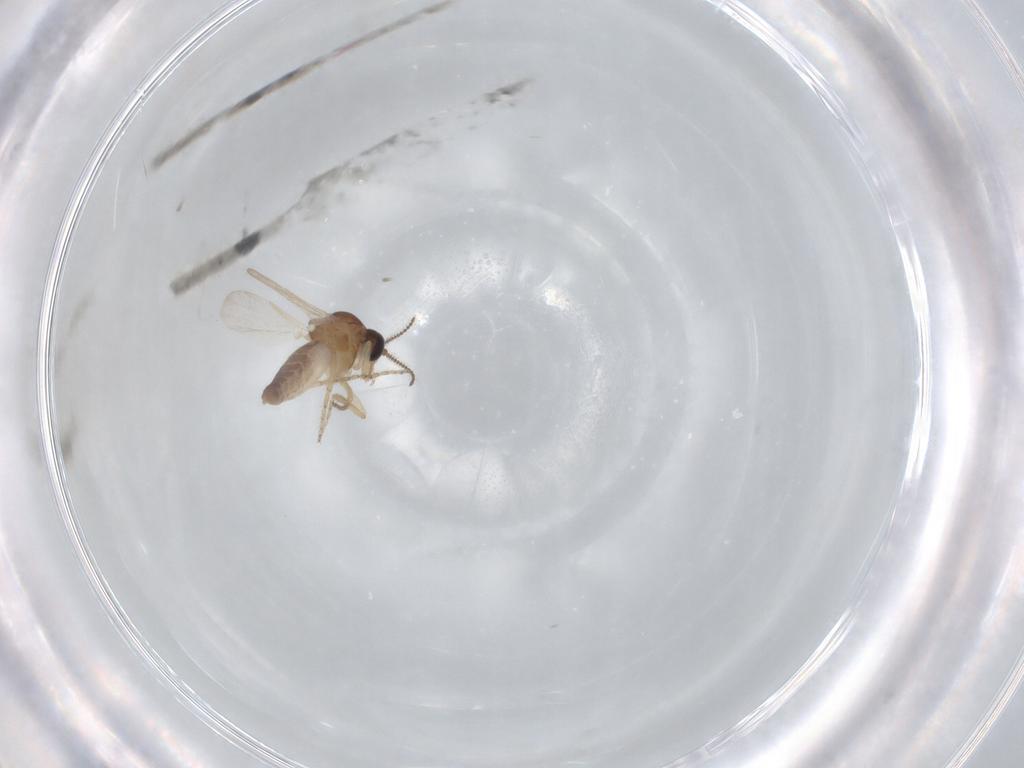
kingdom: Animalia
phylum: Arthropoda
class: Insecta
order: Diptera
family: Ceratopogonidae
